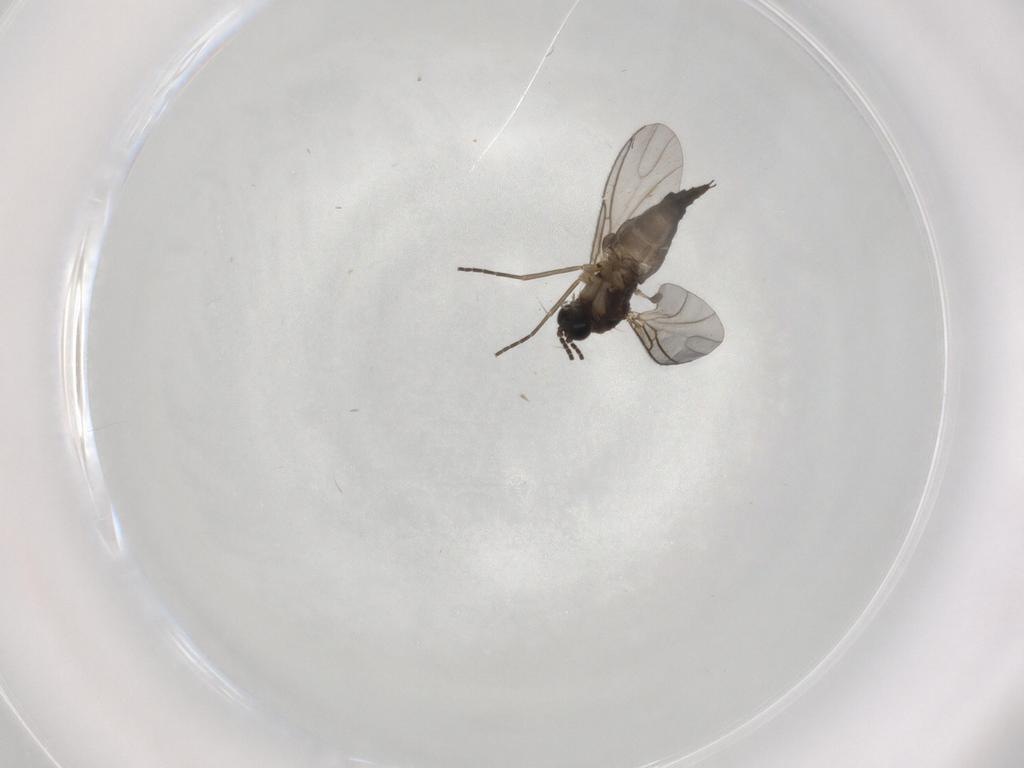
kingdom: Animalia
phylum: Arthropoda
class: Insecta
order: Diptera
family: Sciaridae
